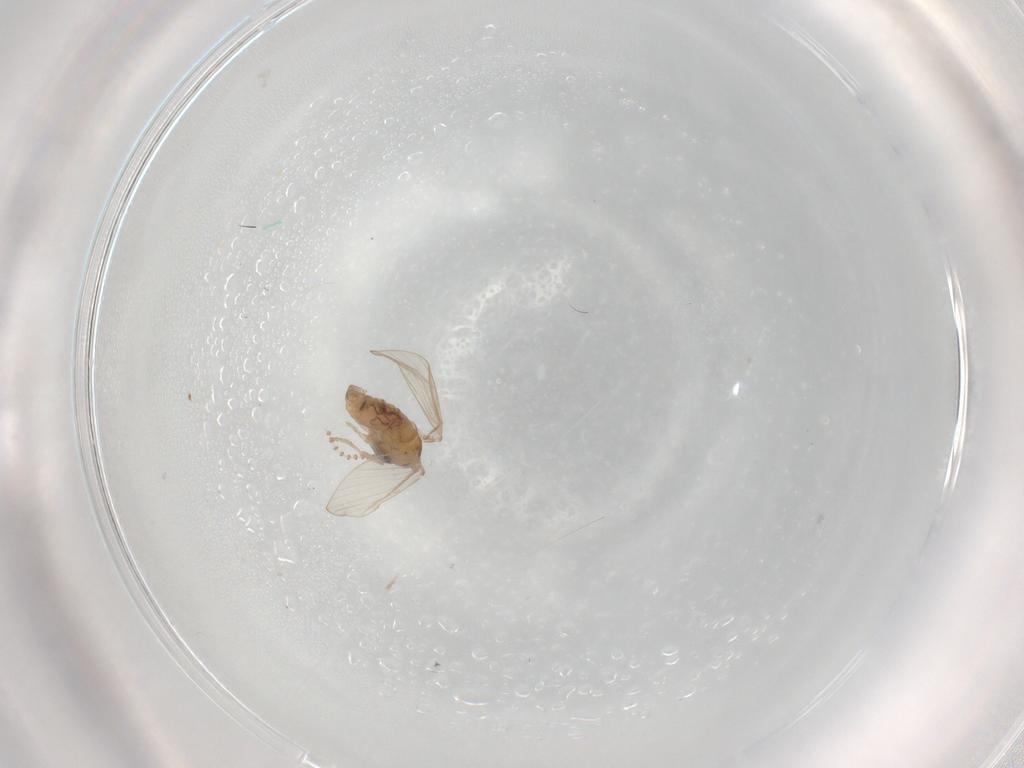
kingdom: Animalia
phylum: Arthropoda
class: Insecta
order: Diptera
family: Psychodidae
